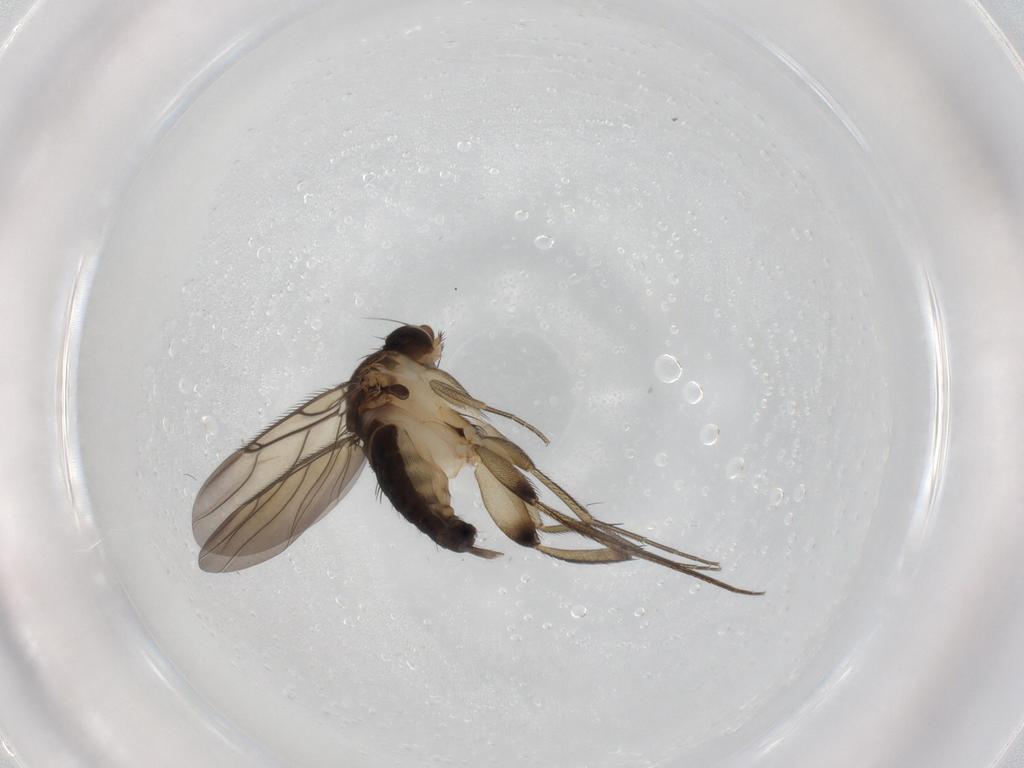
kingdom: Animalia
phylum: Arthropoda
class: Insecta
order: Diptera
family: Phoridae
